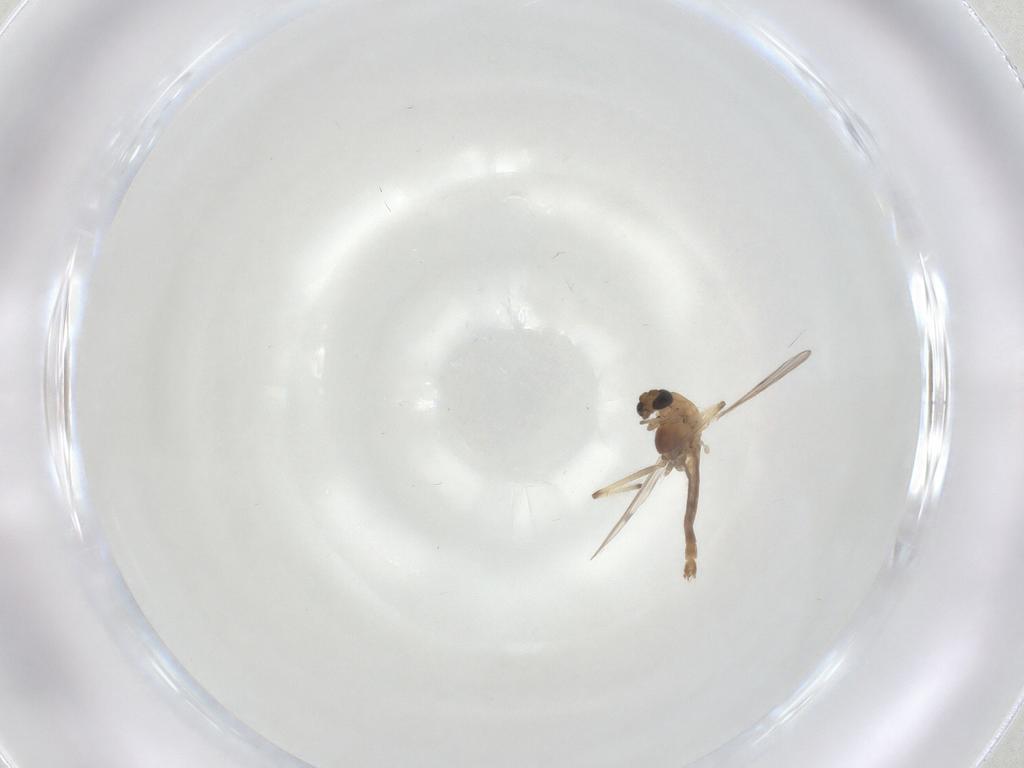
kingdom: Animalia
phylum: Arthropoda
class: Insecta
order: Diptera
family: Chironomidae
